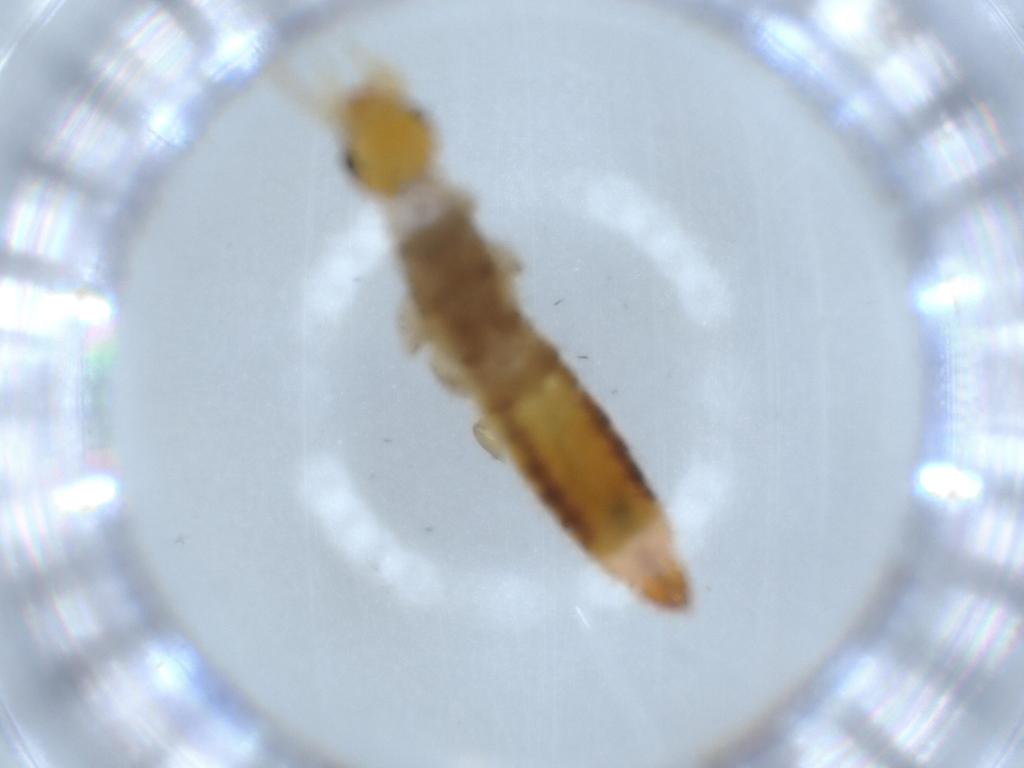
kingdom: Animalia
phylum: Arthropoda
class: Insecta
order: Dermaptera
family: Forficulidae
